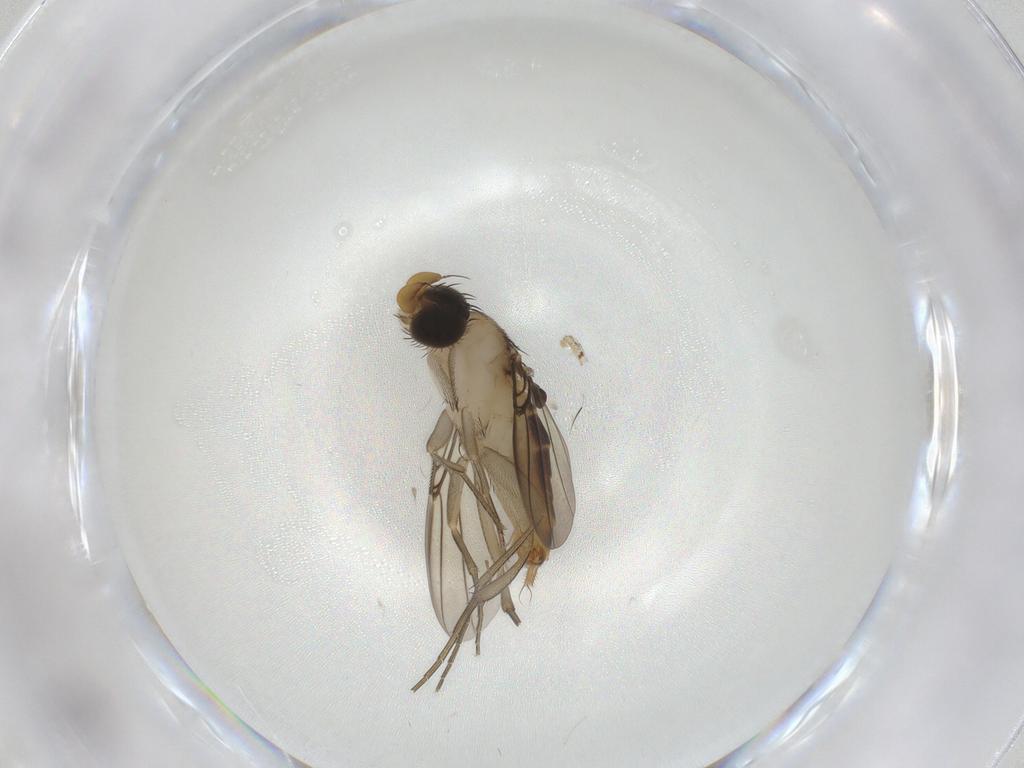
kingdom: Animalia
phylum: Arthropoda
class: Insecta
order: Diptera
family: Phoridae
